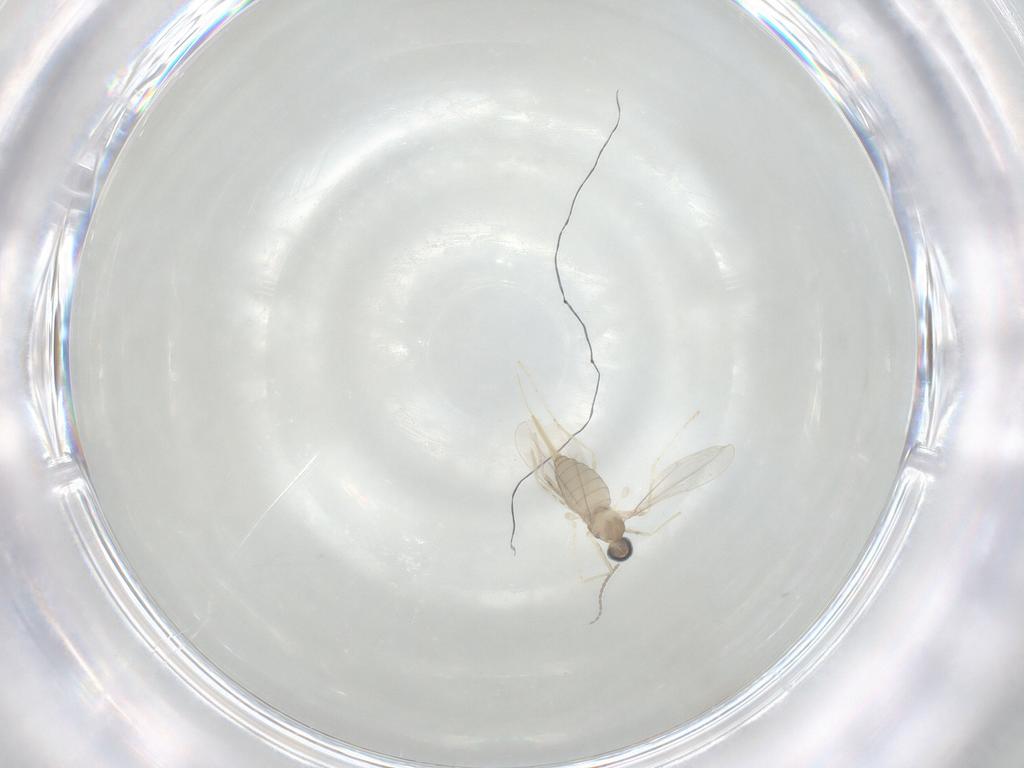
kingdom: Animalia
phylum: Arthropoda
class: Insecta
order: Diptera
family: Cecidomyiidae
